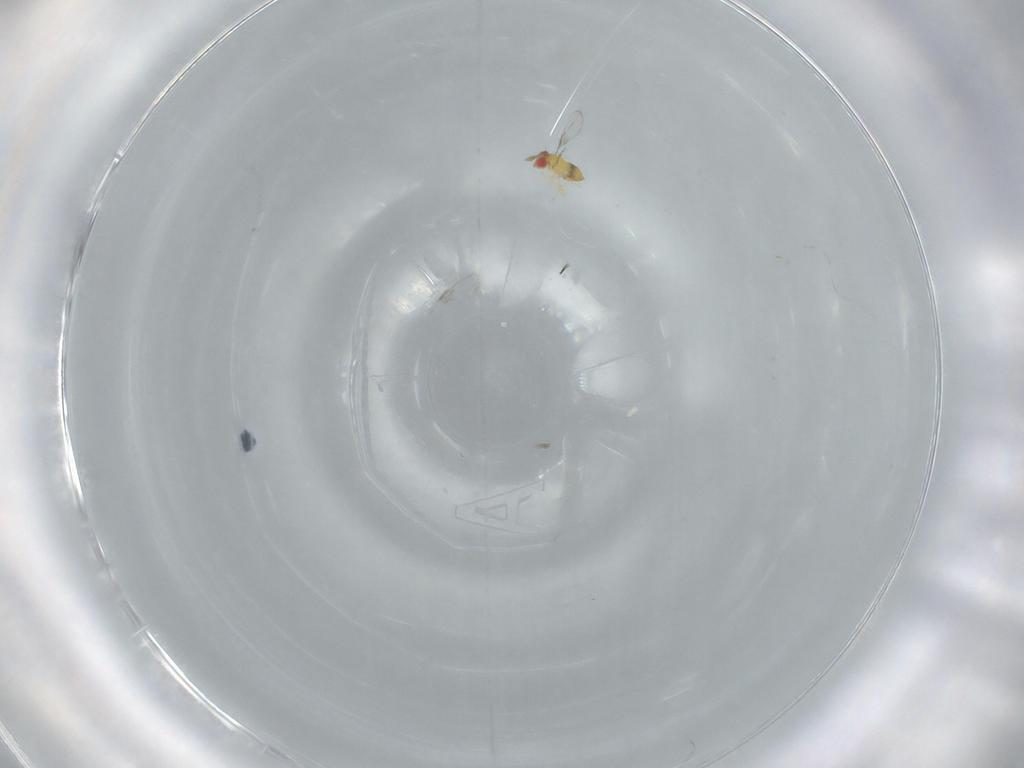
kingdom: Animalia
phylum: Arthropoda
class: Insecta
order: Hymenoptera
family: Trichogrammatidae
